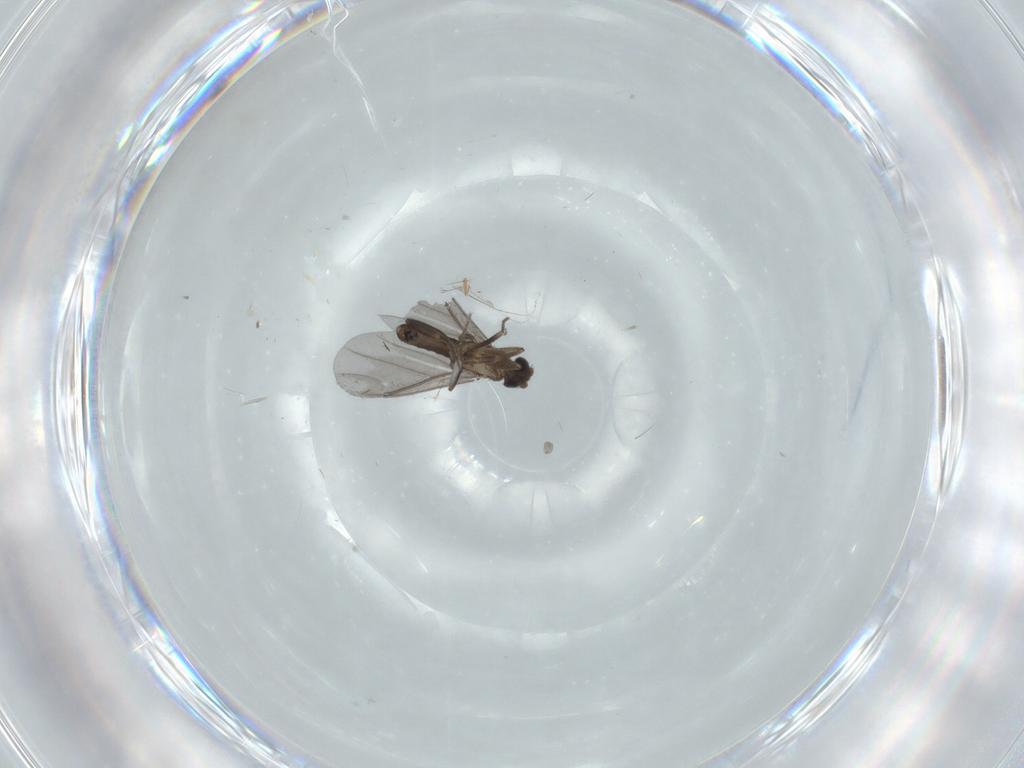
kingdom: Animalia
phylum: Arthropoda
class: Insecta
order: Diptera
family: Phoridae
